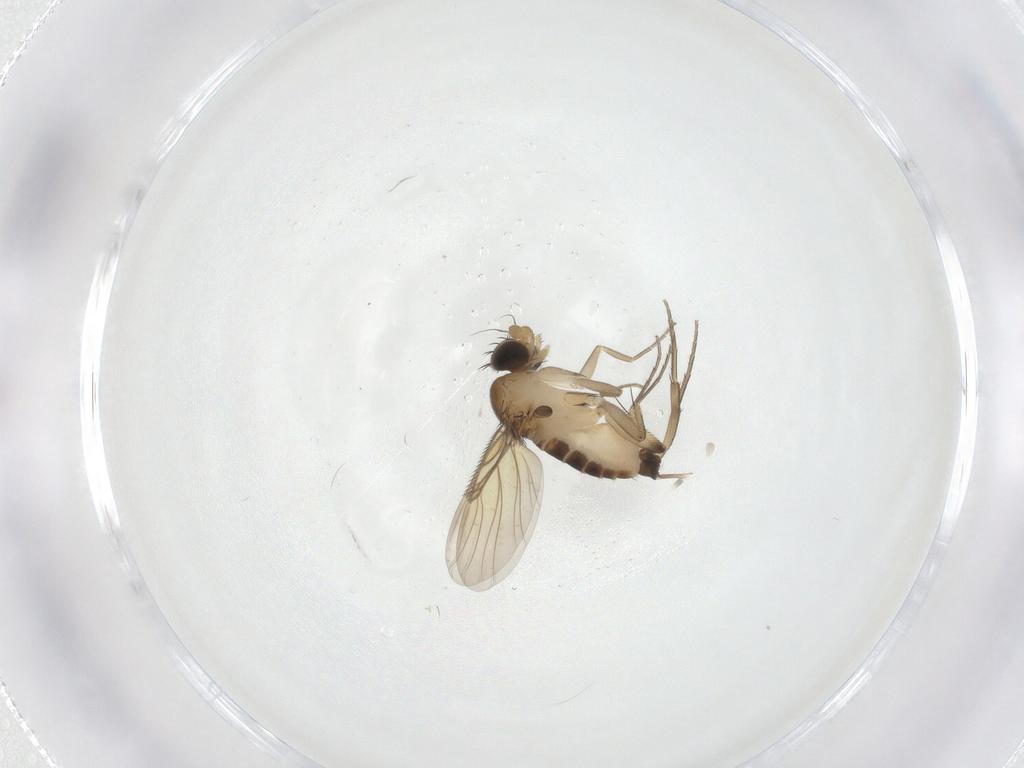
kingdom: Animalia
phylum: Arthropoda
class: Insecta
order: Diptera
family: Phoridae
